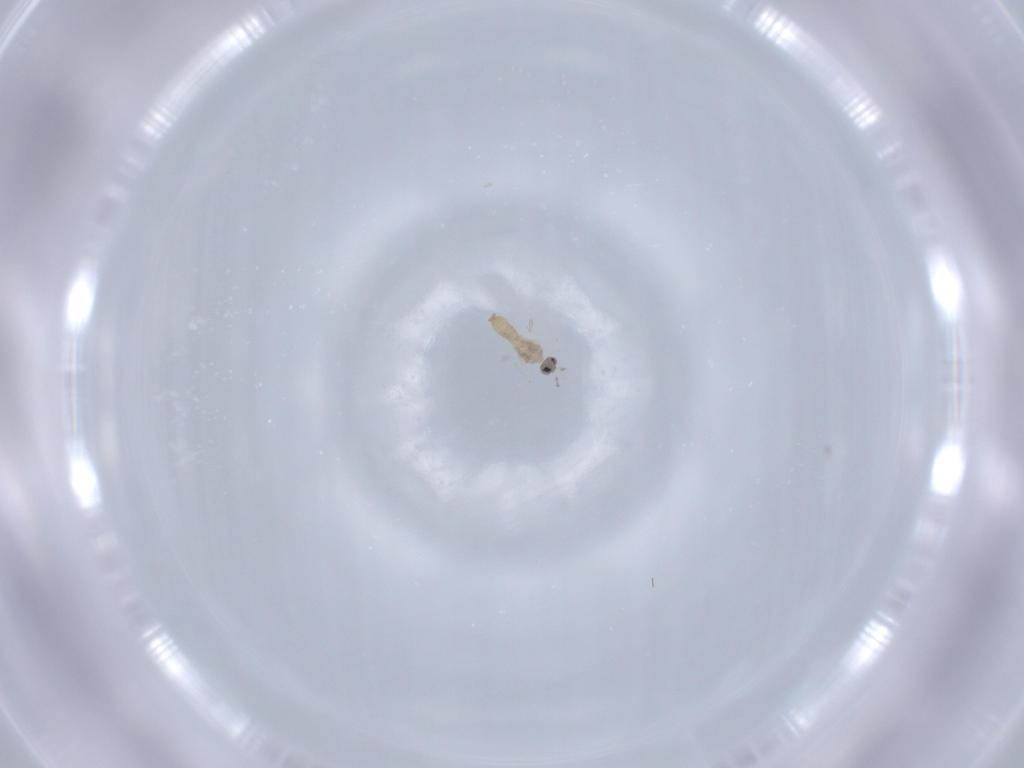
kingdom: Animalia
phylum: Arthropoda
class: Insecta
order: Diptera
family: Cecidomyiidae
